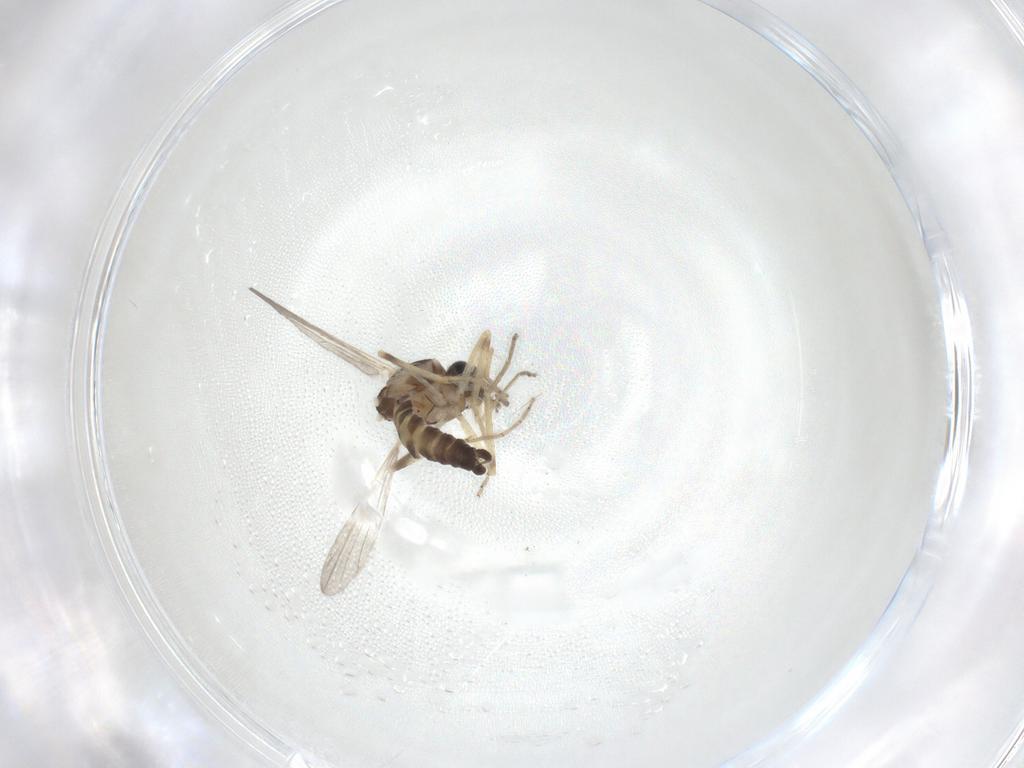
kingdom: Animalia
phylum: Arthropoda
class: Insecta
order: Diptera
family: Ceratopogonidae
